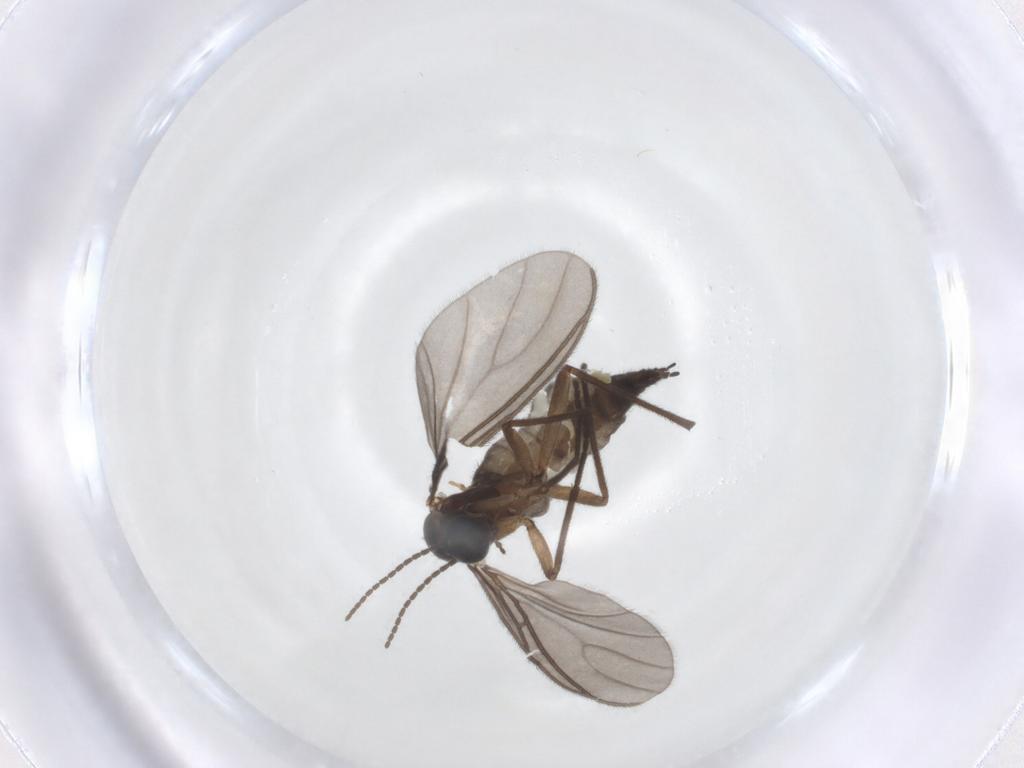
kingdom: Animalia
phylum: Arthropoda
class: Insecta
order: Diptera
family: Sciaridae
